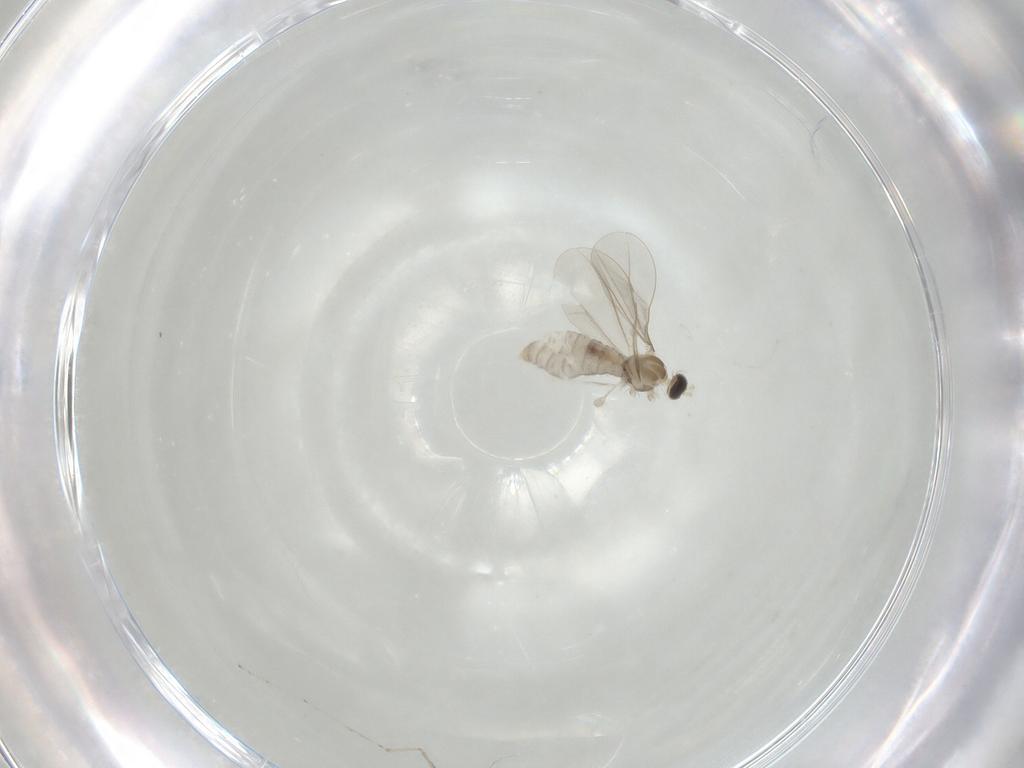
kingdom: Animalia
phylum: Arthropoda
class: Insecta
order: Diptera
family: Cecidomyiidae
